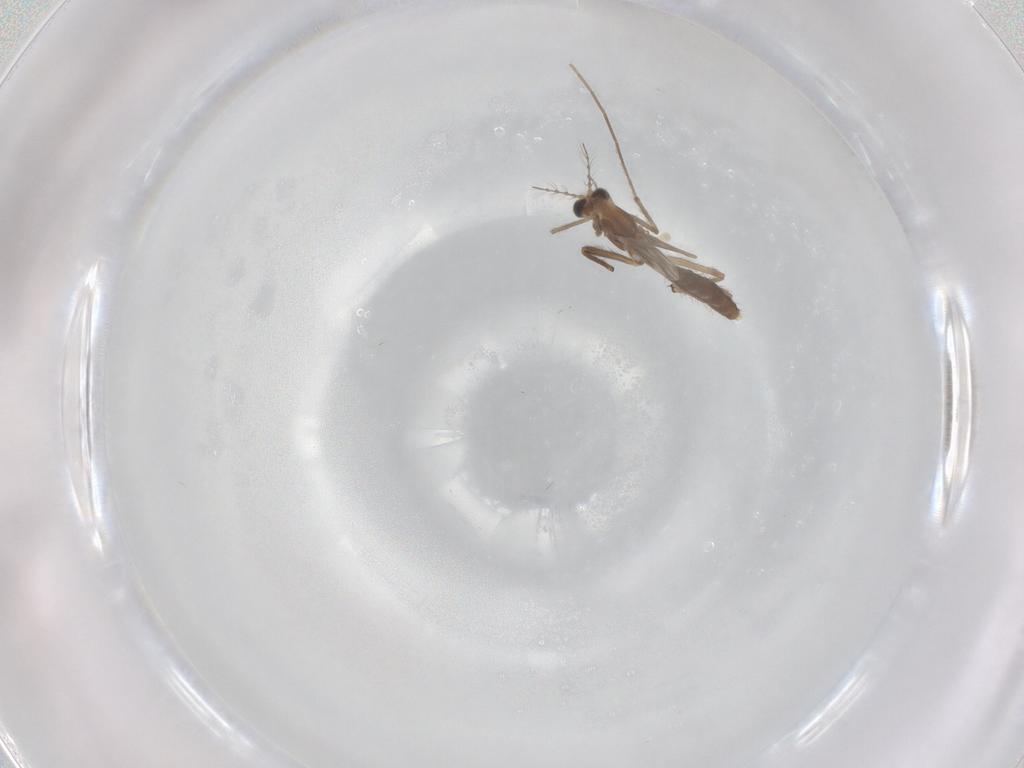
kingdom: Animalia
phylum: Arthropoda
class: Insecta
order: Diptera
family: Chironomidae
